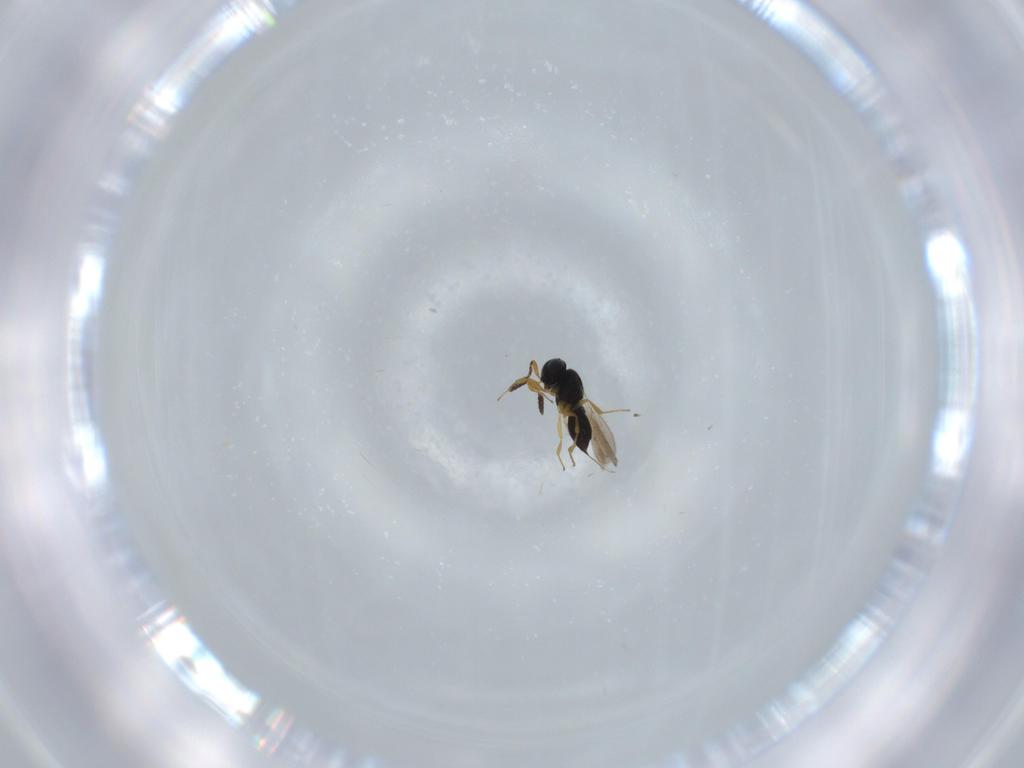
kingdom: Animalia
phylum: Arthropoda
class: Insecta
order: Hymenoptera
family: Scelionidae
